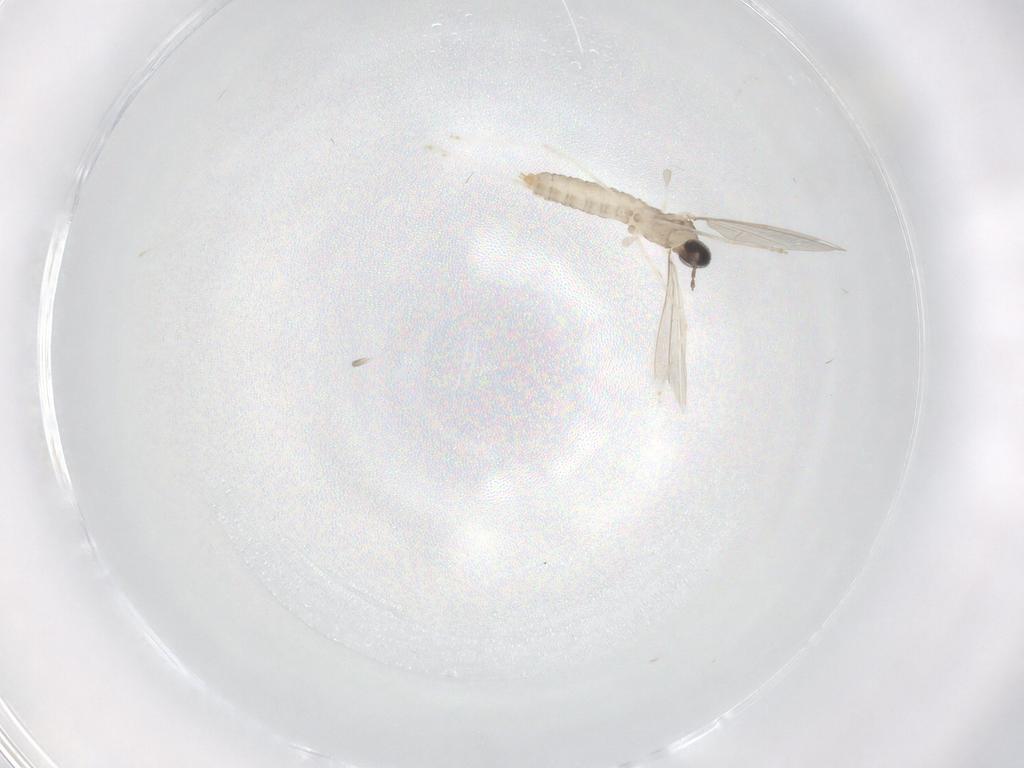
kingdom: Animalia
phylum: Arthropoda
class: Insecta
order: Diptera
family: Cecidomyiidae
